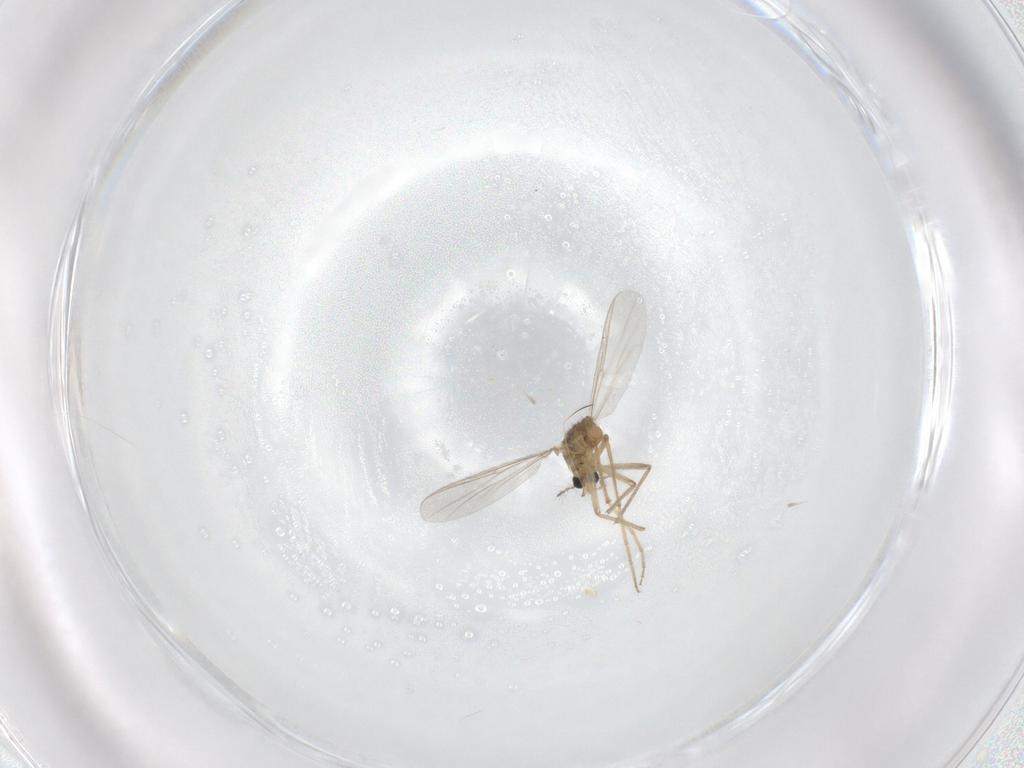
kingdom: Animalia
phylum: Arthropoda
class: Insecta
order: Diptera
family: Chironomidae
